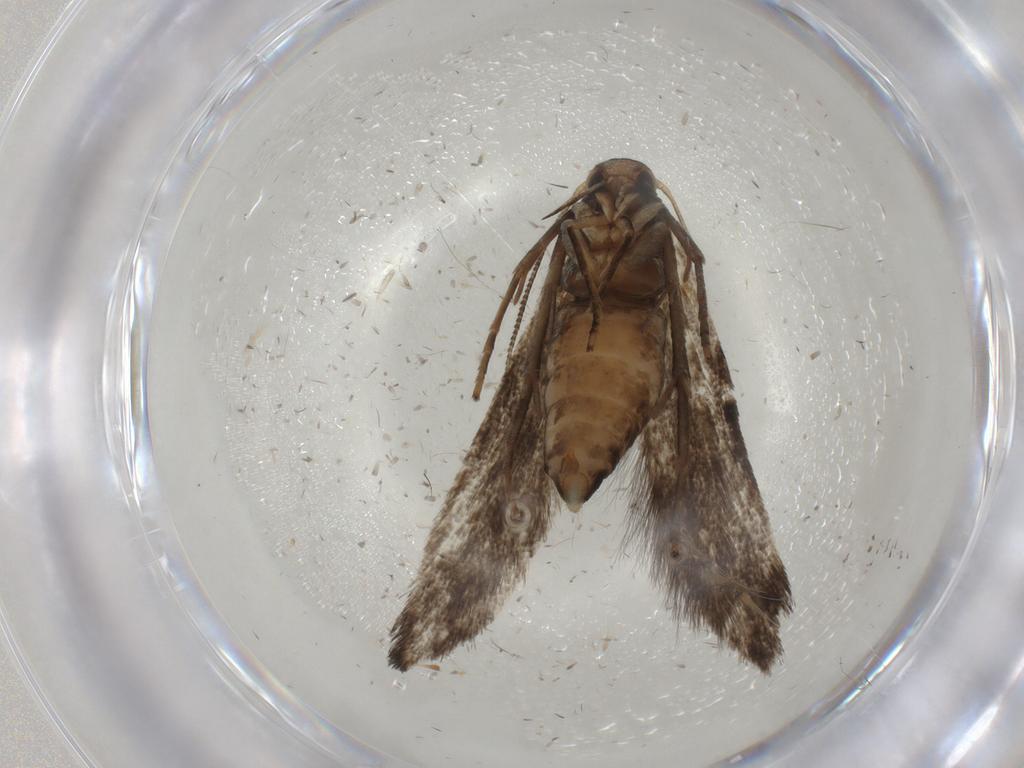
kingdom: Animalia
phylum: Arthropoda
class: Insecta
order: Lepidoptera
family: Noctuidae
